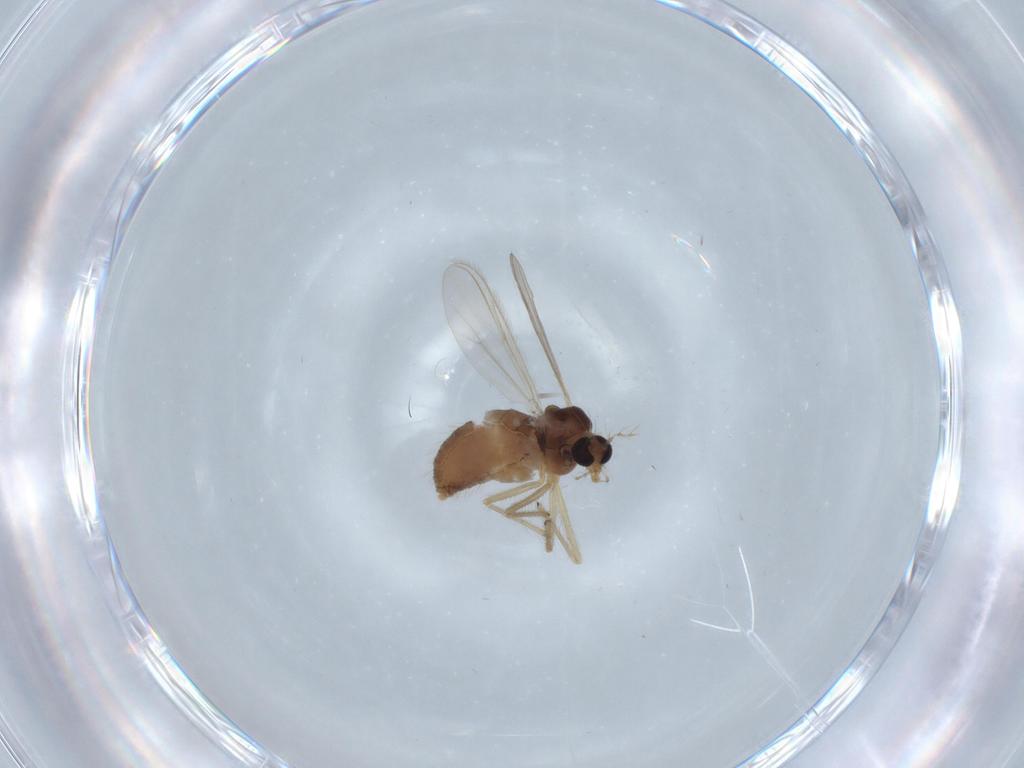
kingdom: Animalia
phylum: Arthropoda
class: Insecta
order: Diptera
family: Chironomidae
